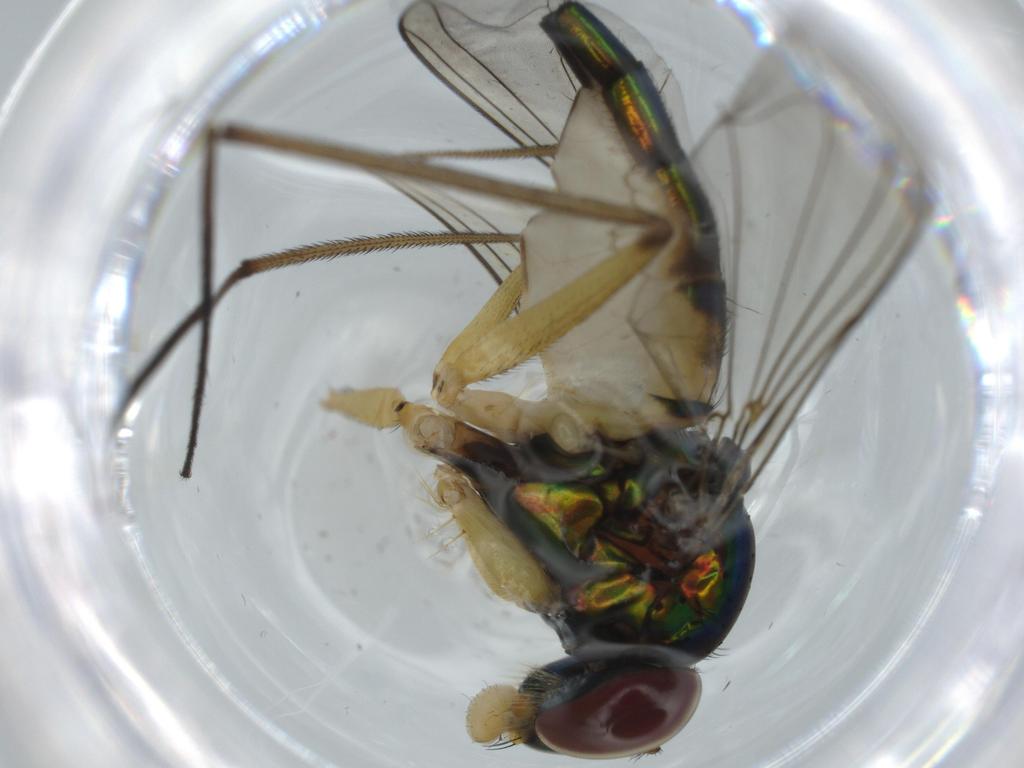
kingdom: Animalia
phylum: Arthropoda
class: Insecta
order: Diptera
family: Dolichopodidae
